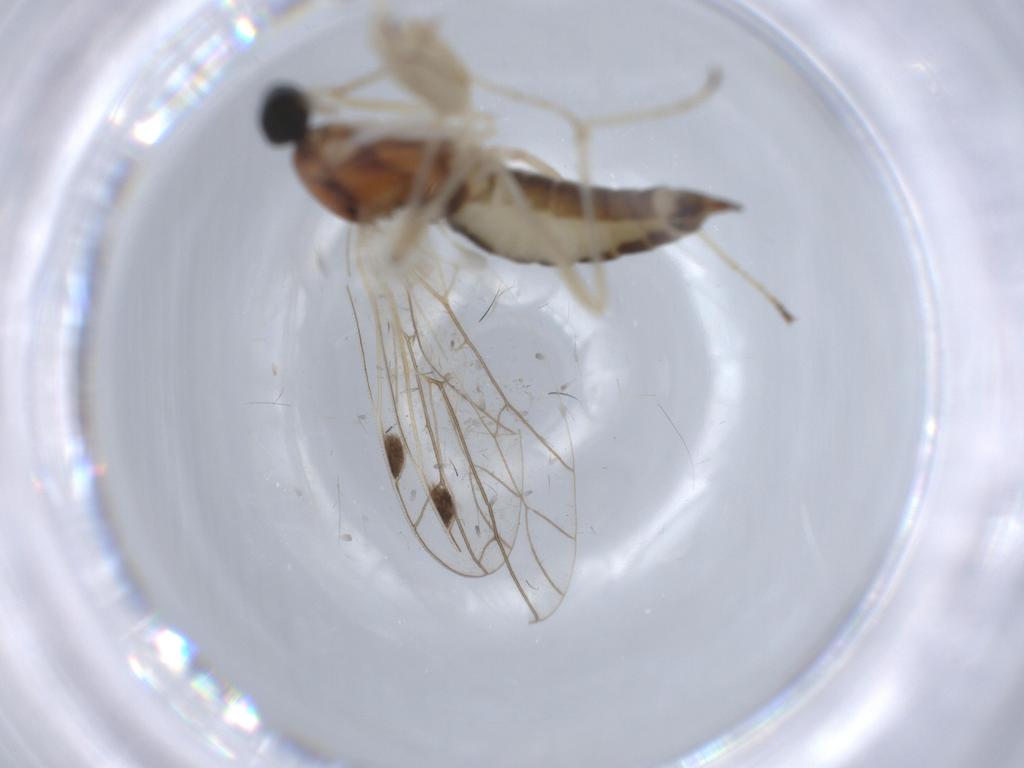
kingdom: Animalia
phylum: Arthropoda
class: Insecta
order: Diptera
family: Empididae
